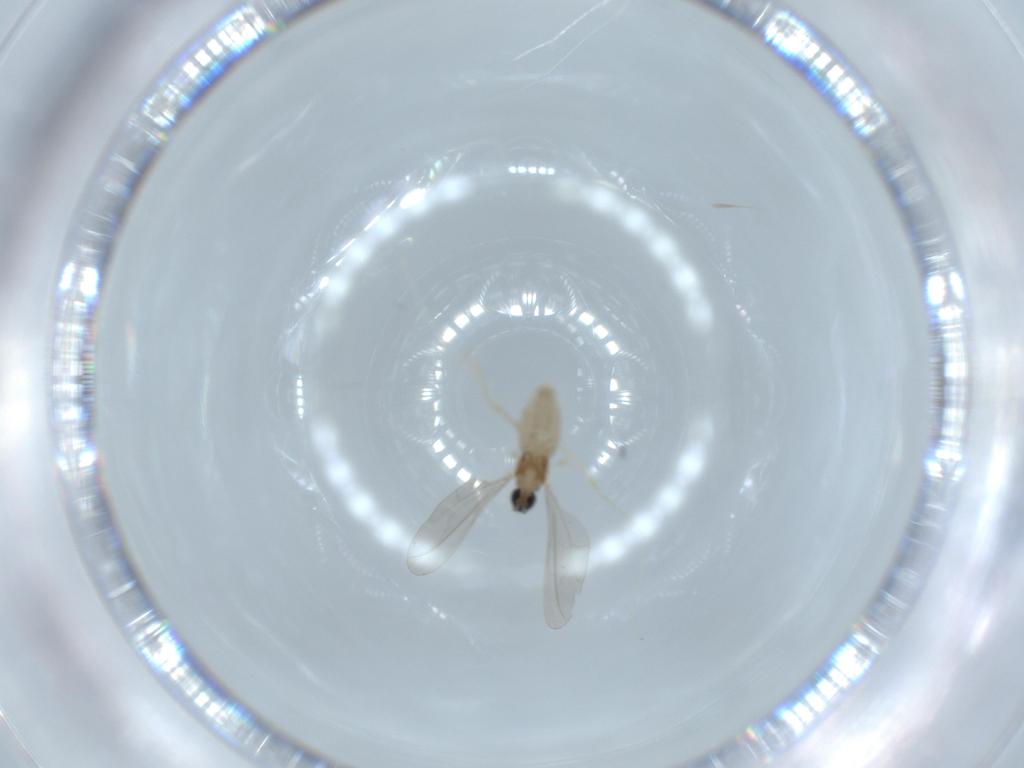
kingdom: Animalia
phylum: Arthropoda
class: Insecta
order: Diptera
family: Cecidomyiidae
